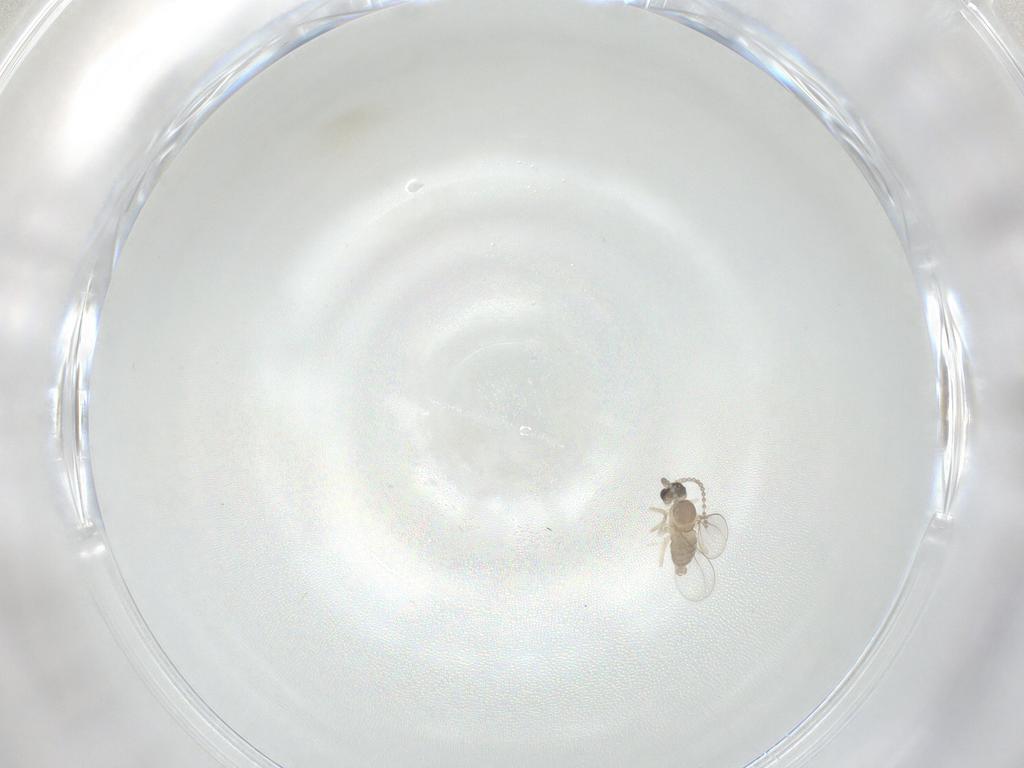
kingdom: Animalia
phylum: Arthropoda
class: Insecta
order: Diptera
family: Cecidomyiidae
